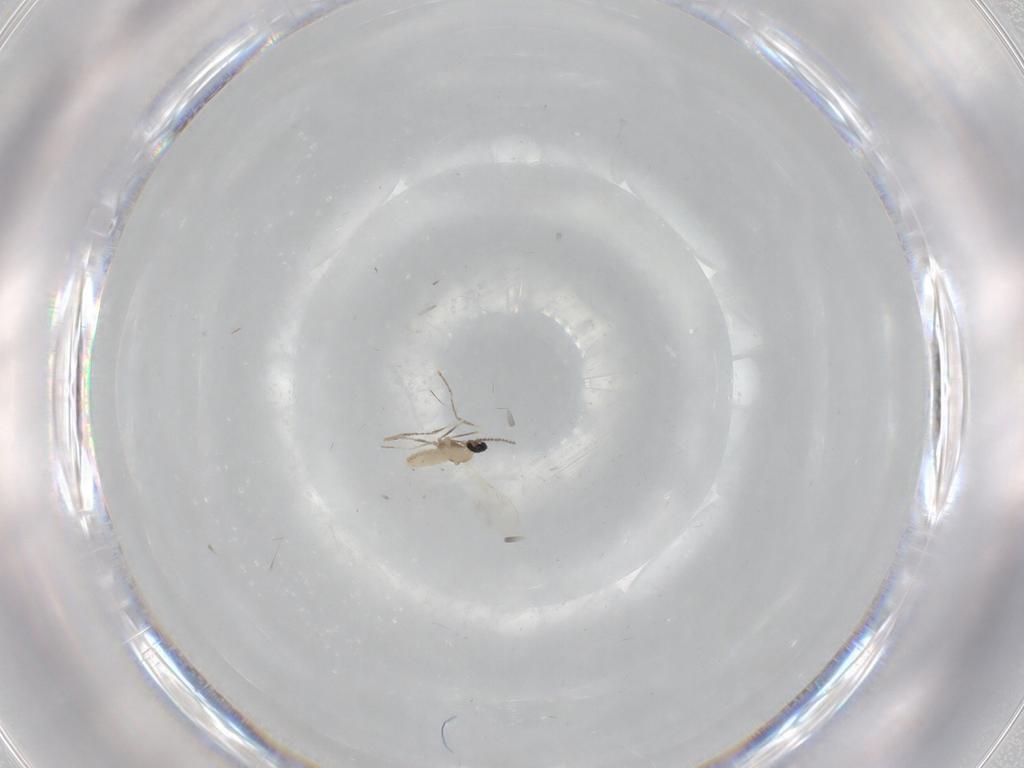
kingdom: Animalia
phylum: Arthropoda
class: Insecta
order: Diptera
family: Cecidomyiidae
